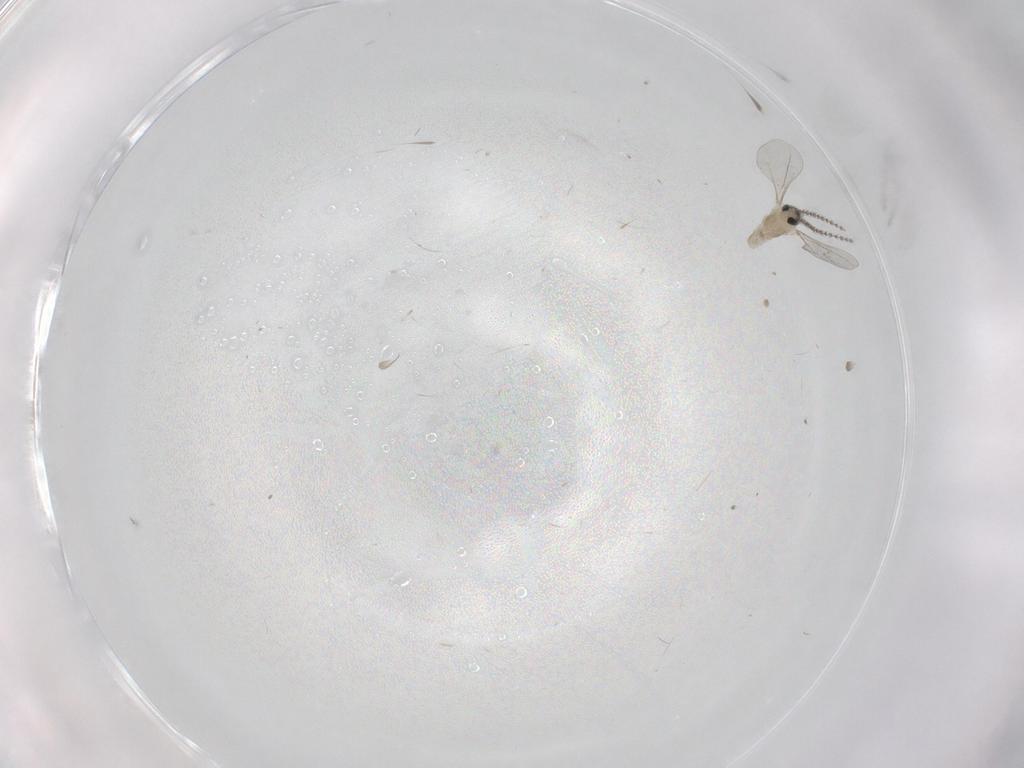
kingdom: Animalia
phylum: Arthropoda
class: Insecta
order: Diptera
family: Cecidomyiidae
